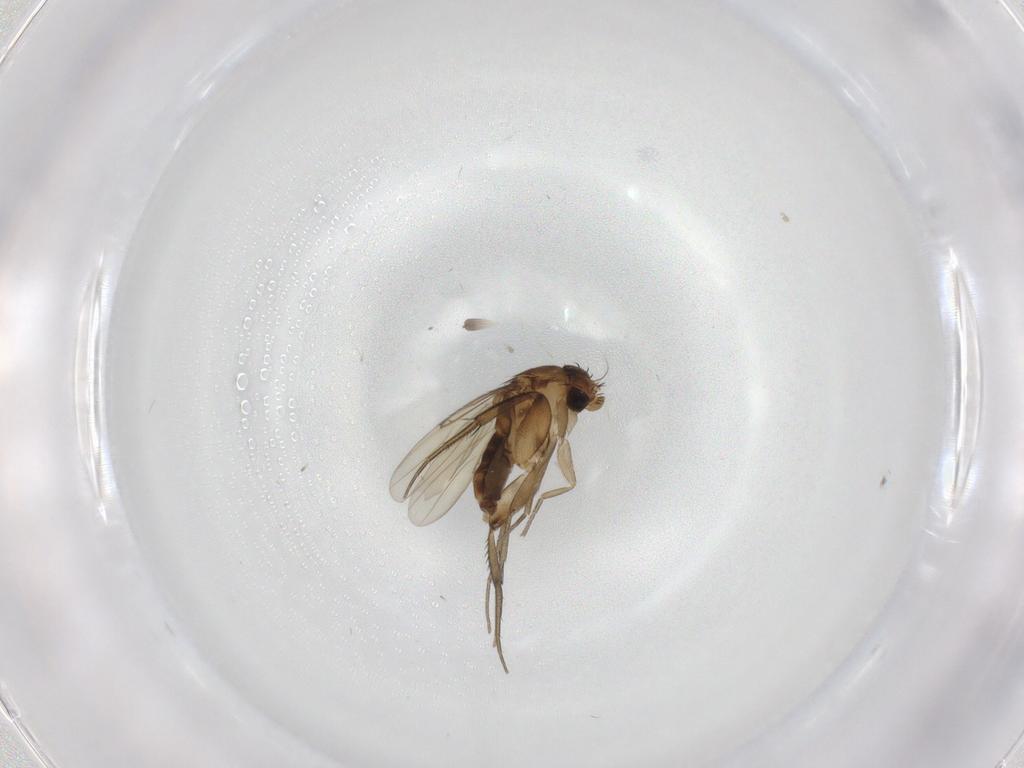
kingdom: Animalia
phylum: Arthropoda
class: Insecta
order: Diptera
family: Phoridae
